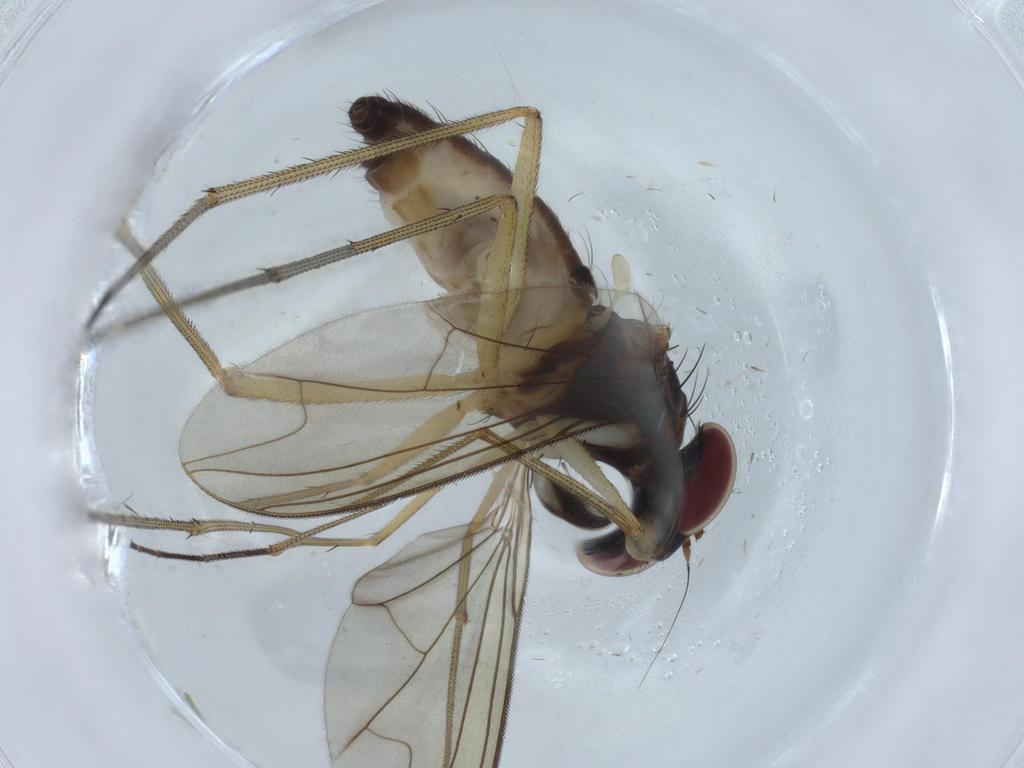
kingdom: Animalia
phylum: Arthropoda
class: Insecta
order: Diptera
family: Dolichopodidae
